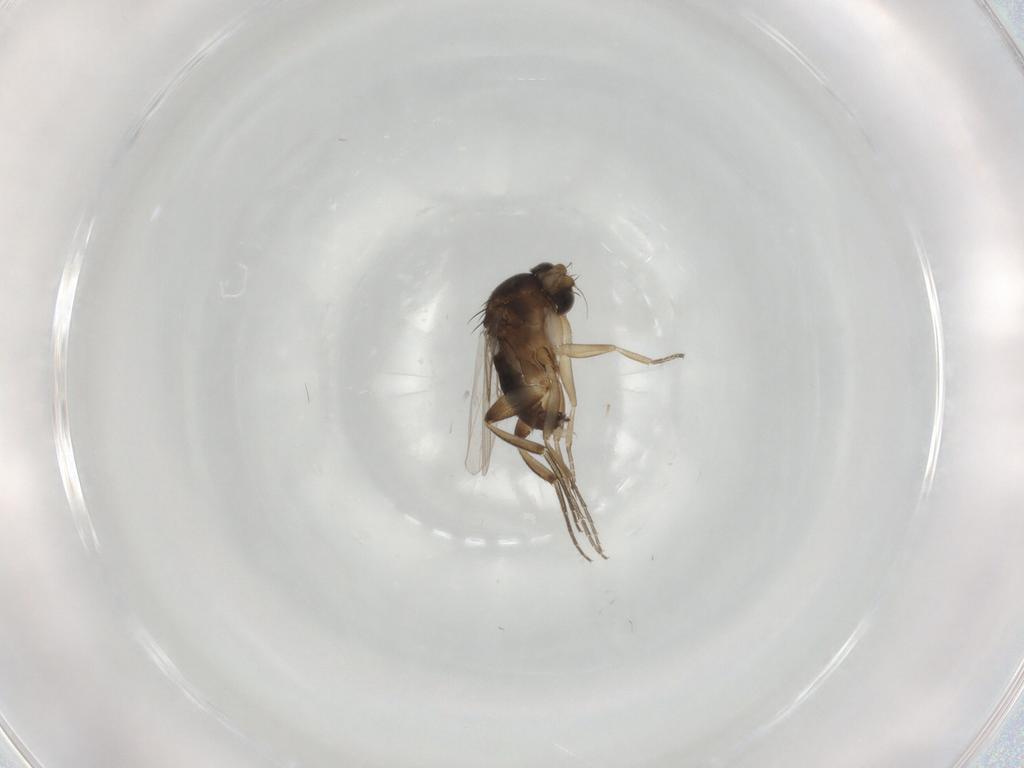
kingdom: Animalia
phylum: Arthropoda
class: Insecta
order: Diptera
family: Phoridae
